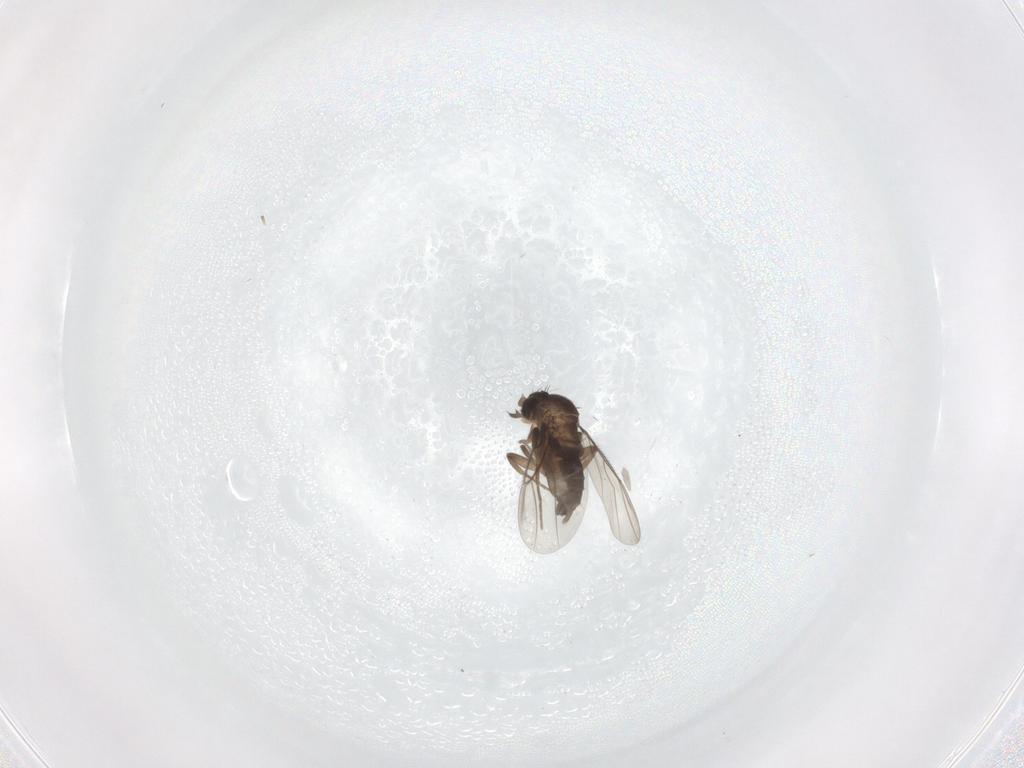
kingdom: Animalia
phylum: Arthropoda
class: Insecta
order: Diptera
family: Phoridae
